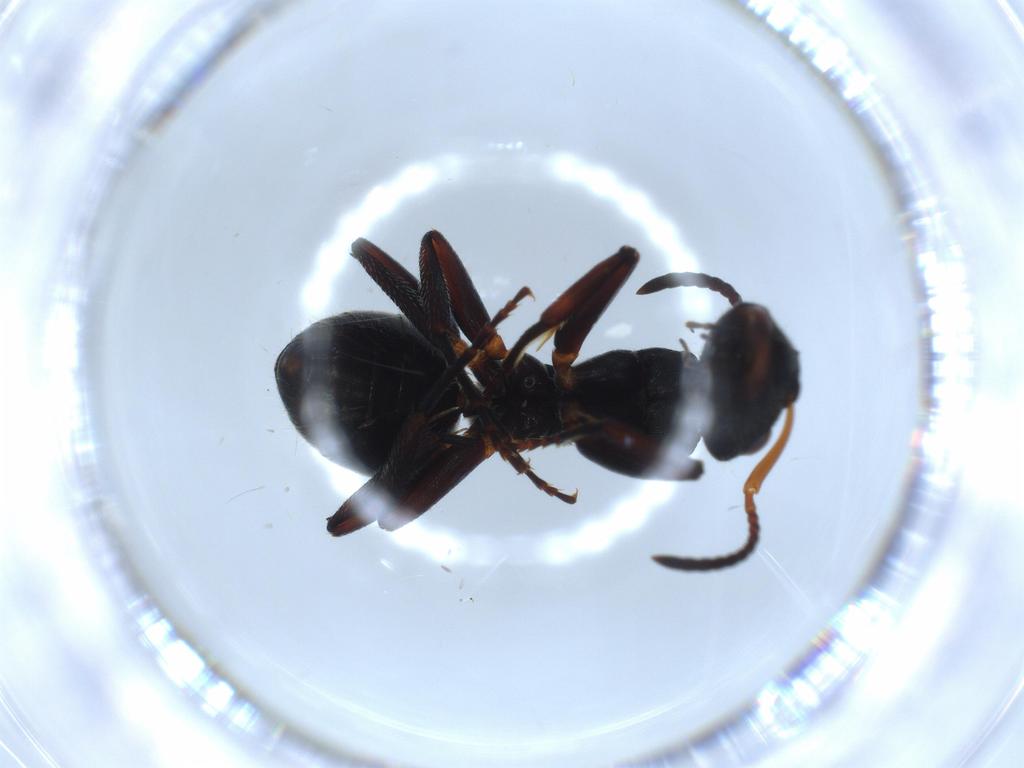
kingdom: Animalia
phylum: Arthropoda
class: Insecta
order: Hymenoptera
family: Formicidae
